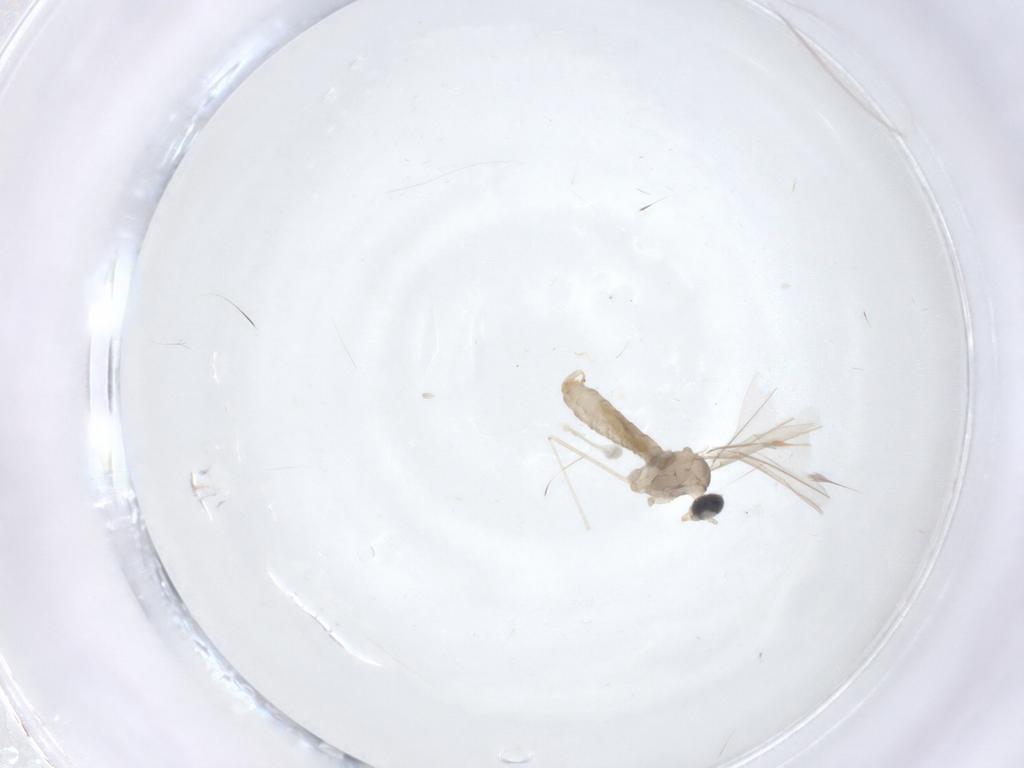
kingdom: Animalia
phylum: Arthropoda
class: Insecta
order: Diptera
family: Cecidomyiidae
